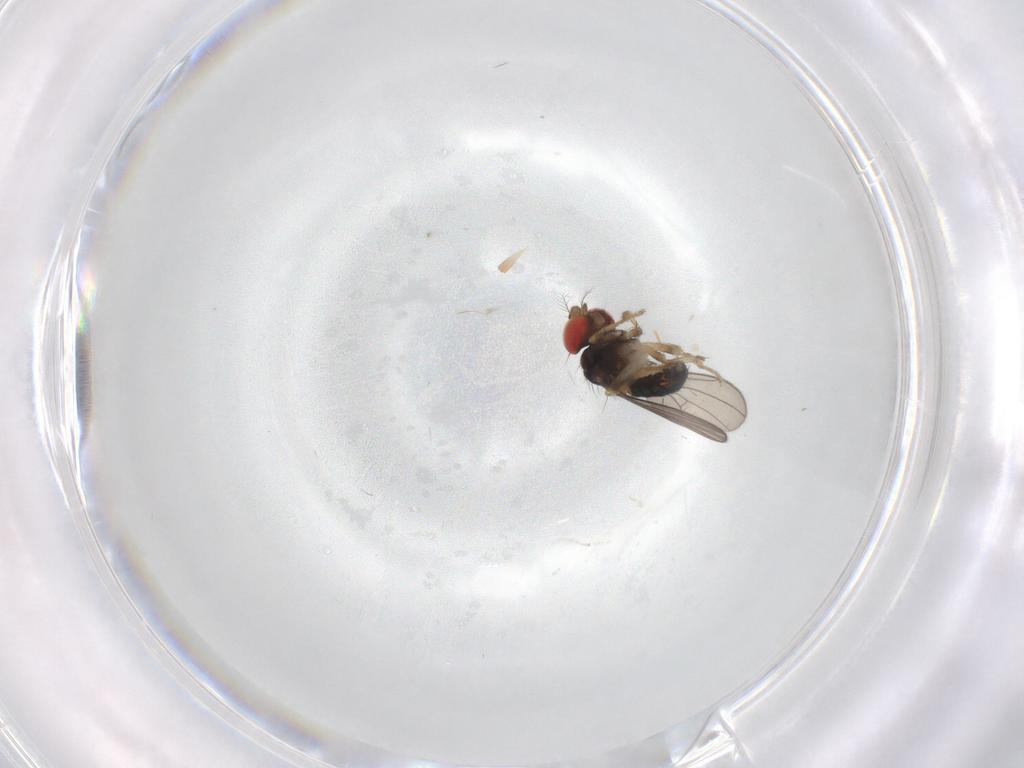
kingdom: Animalia
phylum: Arthropoda
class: Insecta
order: Diptera
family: Drosophilidae
